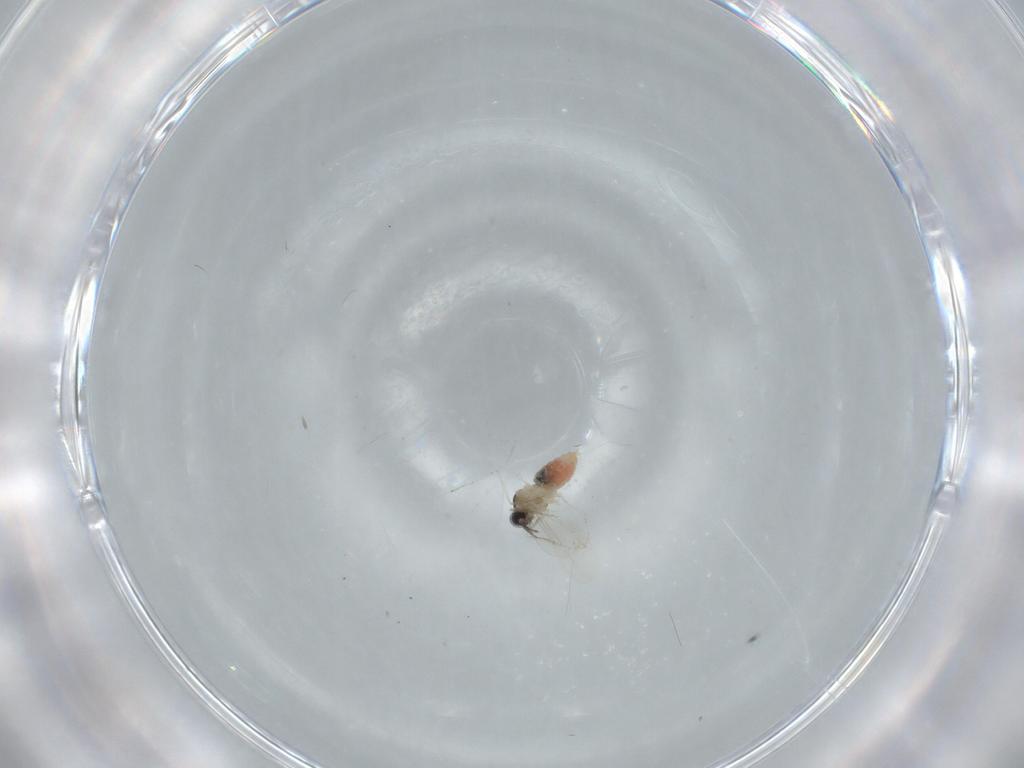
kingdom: Animalia
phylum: Arthropoda
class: Insecta
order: Diptera
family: Cecidomyiidae
